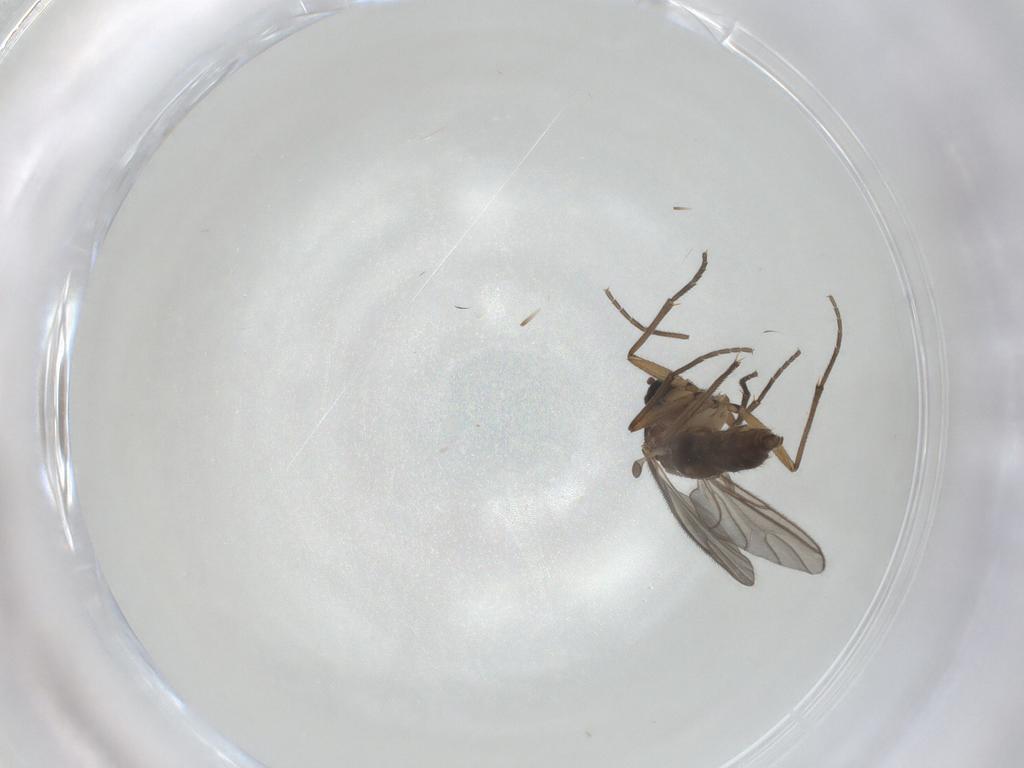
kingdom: Animalia
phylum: Arthropoda
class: Insecta
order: Diptera
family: Sciaridae
